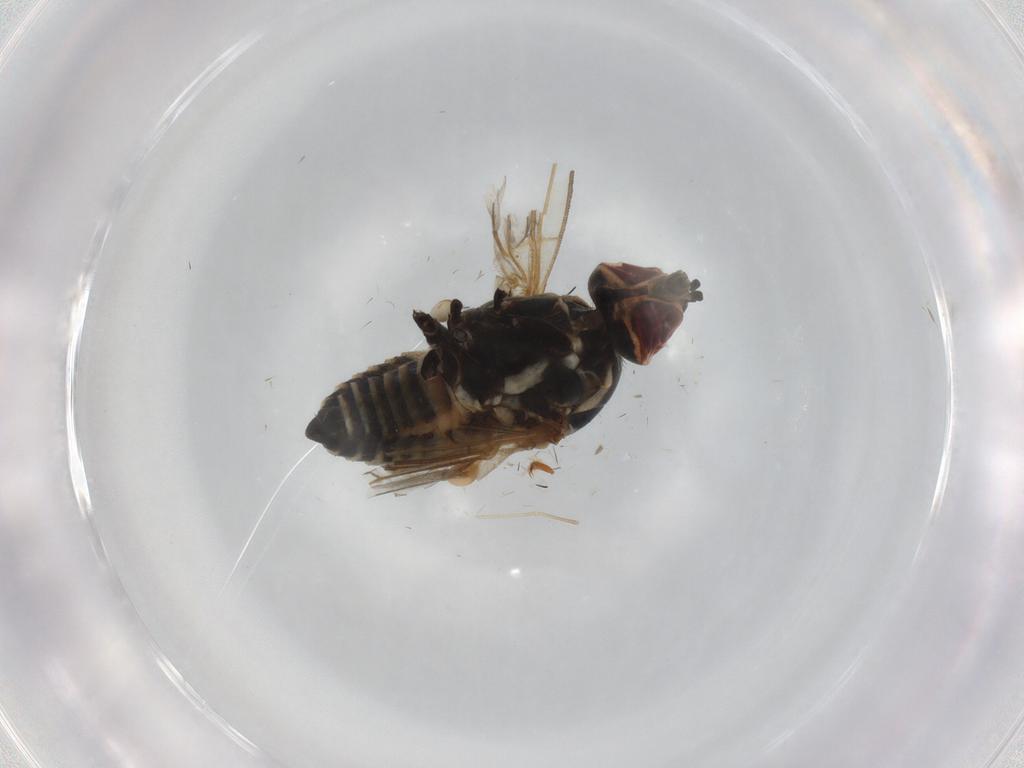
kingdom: Animalia
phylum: Arthropoda
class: Insecta
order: Diptera
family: Bombyliidae
